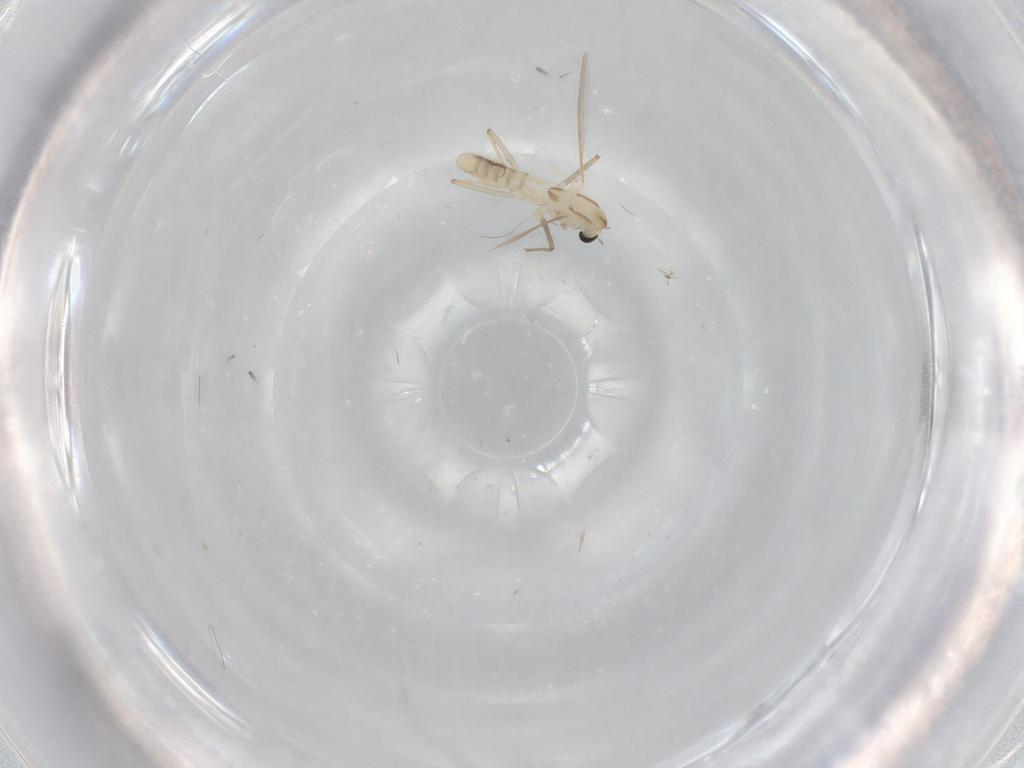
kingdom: Animalia
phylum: Arthropoda
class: Insecta
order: Diptera
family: Chironomidae
